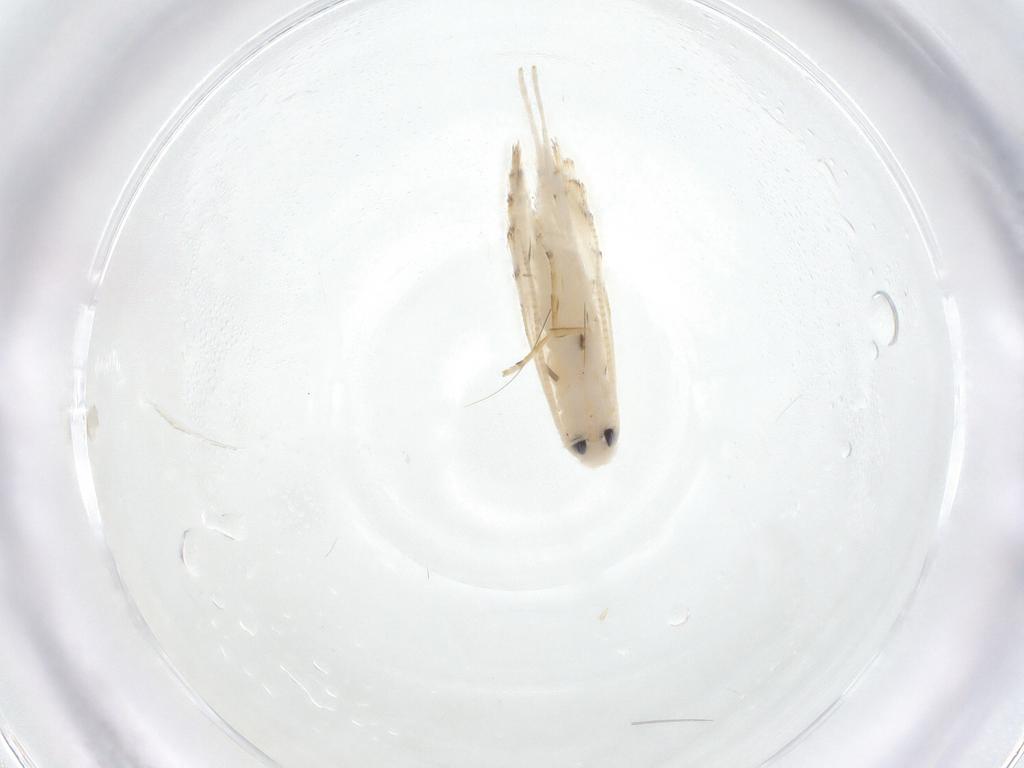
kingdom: Animalia
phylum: Arthropoda
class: Insecta
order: Lepidoptera
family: Gracillariidae
